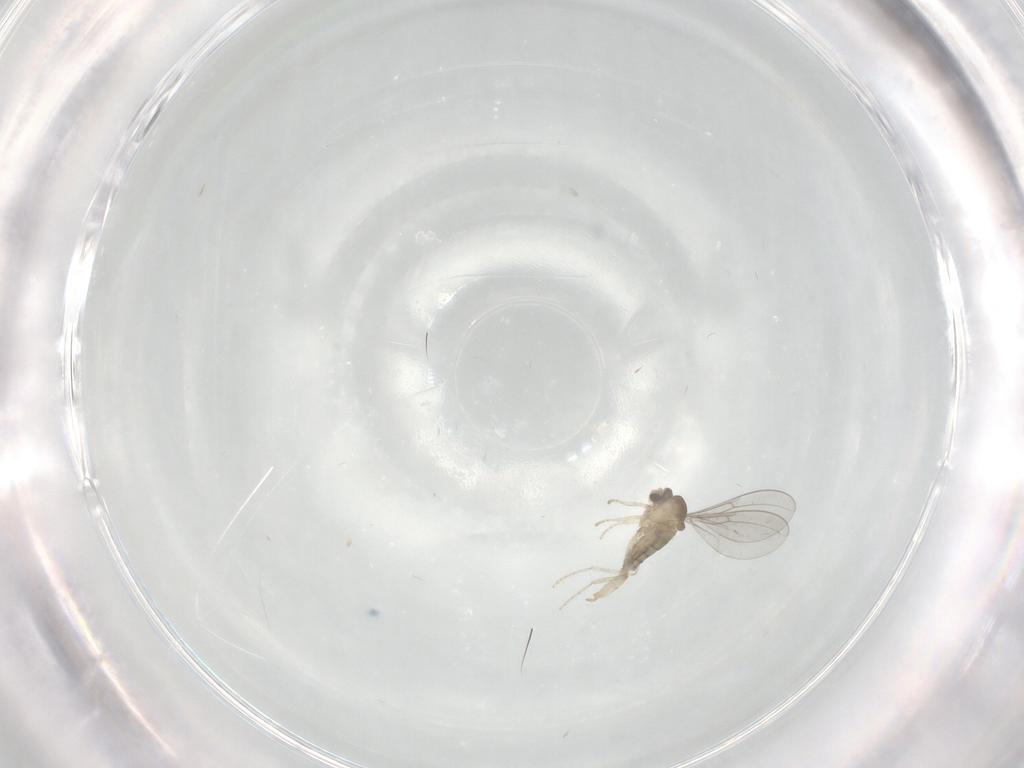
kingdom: Animalia
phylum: Arthropoda
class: Insecta
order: Diptera
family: Cecidomyiidae
